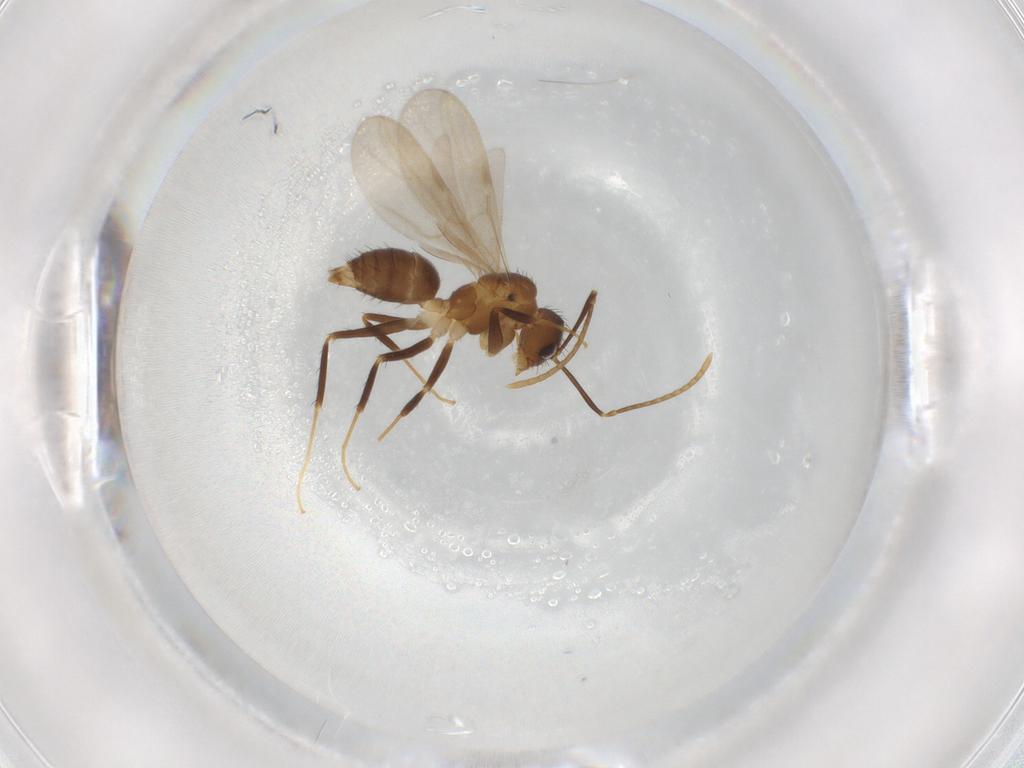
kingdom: Animalia
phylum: Arthropoda
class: Insecta
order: Hymenoptera
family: Formicidae
